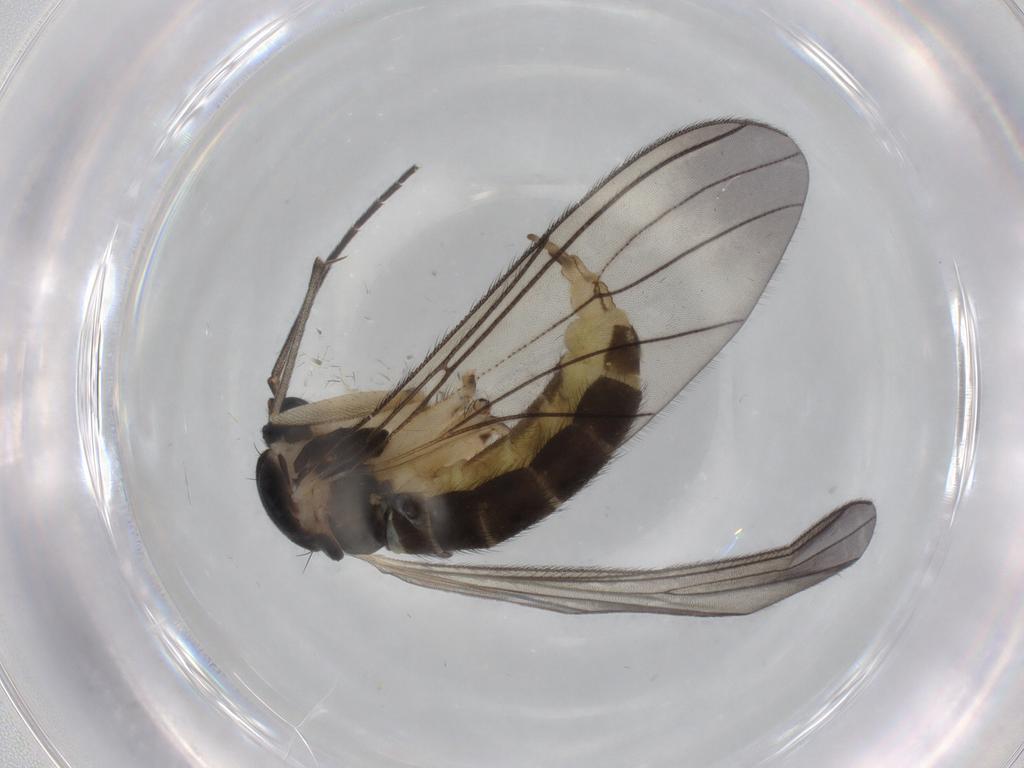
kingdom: Animalia
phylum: Arthropoda
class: Insecta
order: Diptera
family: Sciaridae
